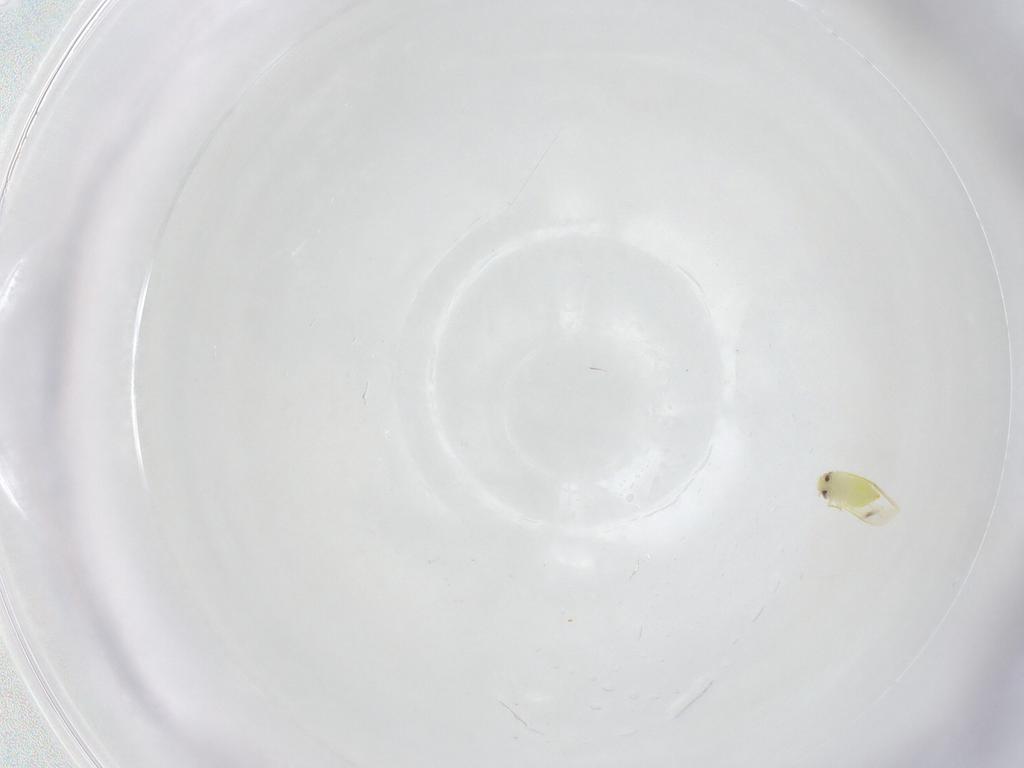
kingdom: Animalia
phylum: Arthropoda
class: Insecta
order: Hemiptera
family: Aleyrodidae
